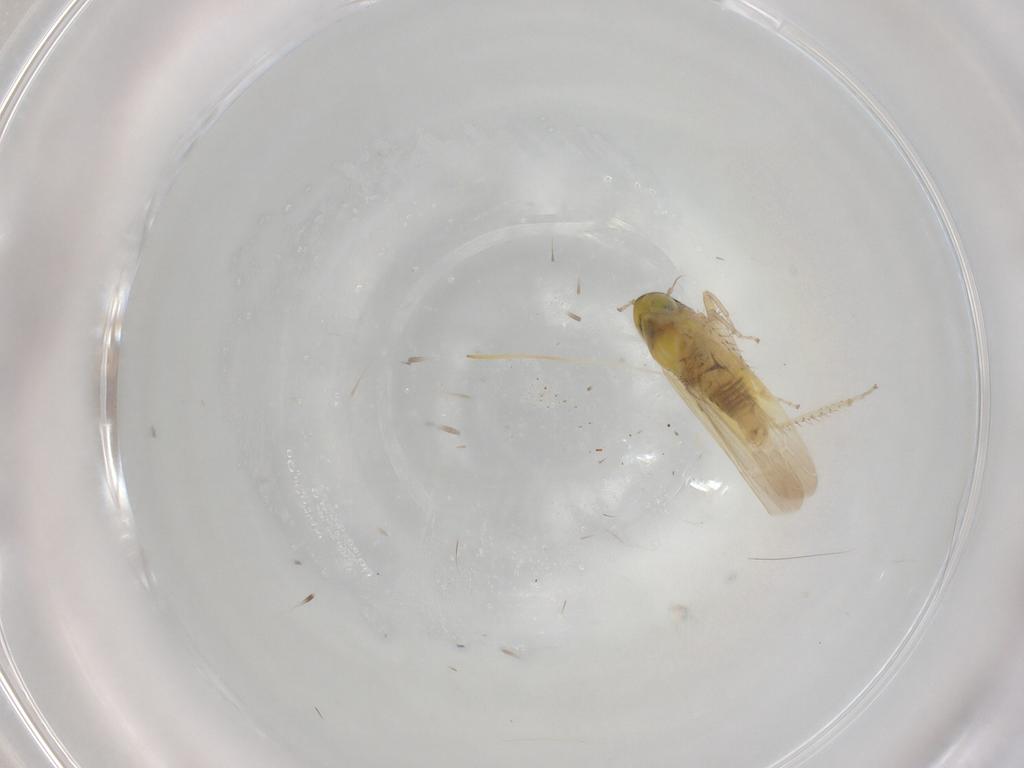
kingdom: Animalia
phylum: Arthropoda
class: Insecta
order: Hemiptera
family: Cicadellidae
